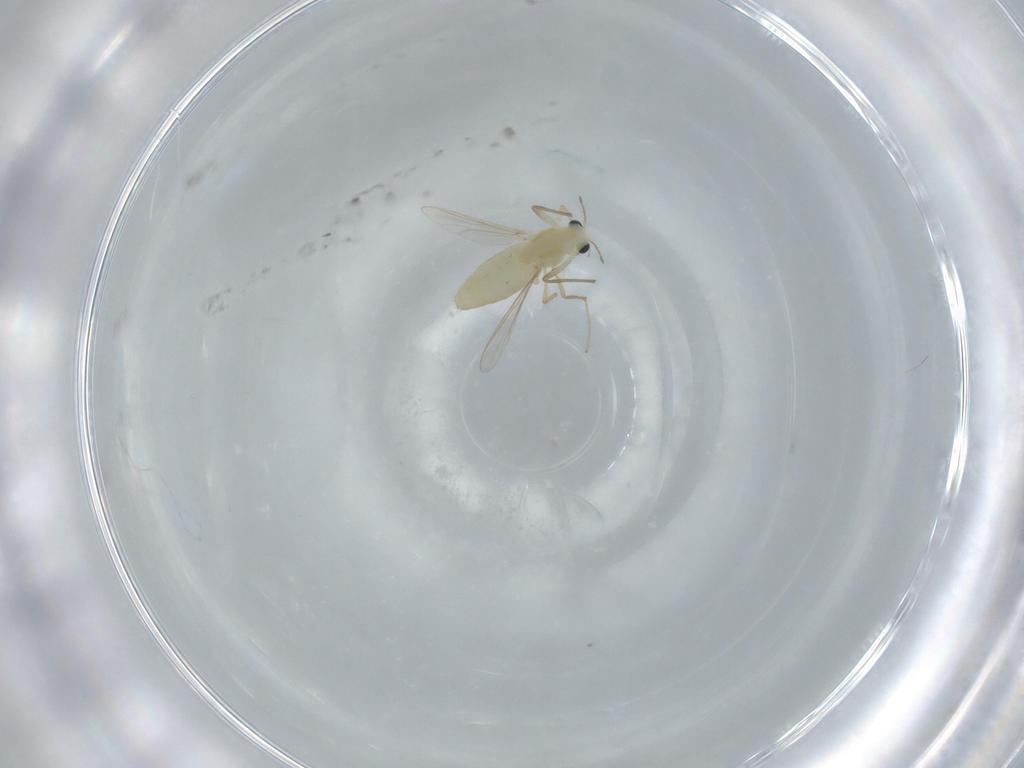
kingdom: Animalia
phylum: Arthropoda
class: Insecta
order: Diptera
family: Chironomidae
